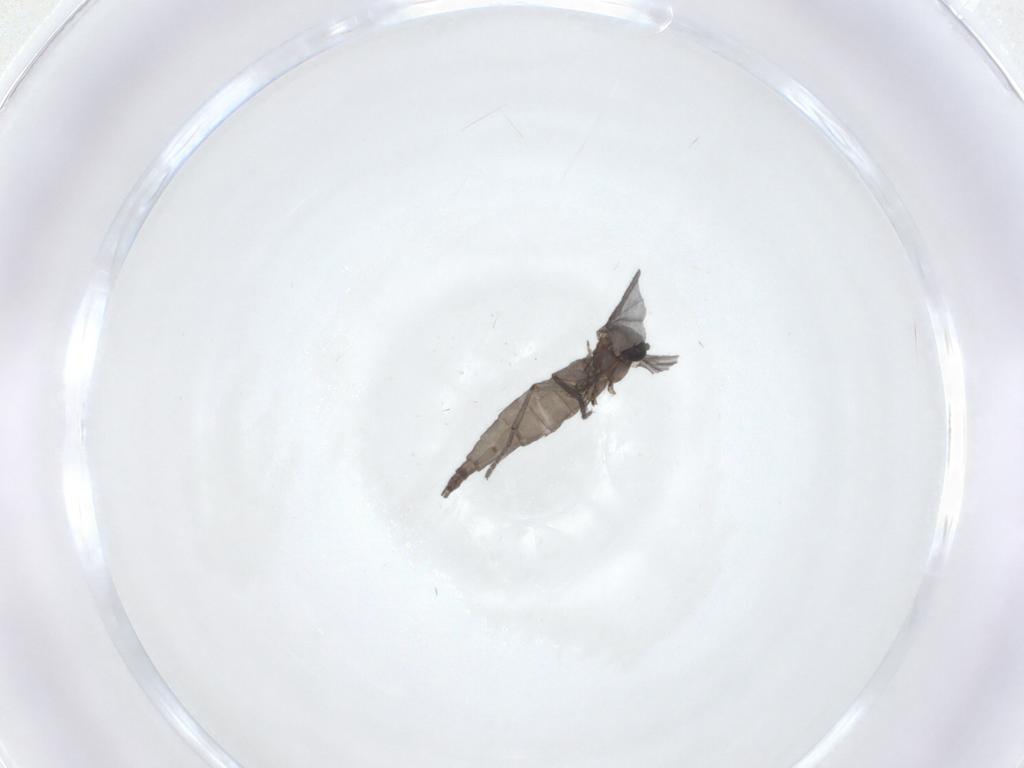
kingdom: Animalia
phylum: Arthropoda
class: Insecta
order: Diptera
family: Sciaridae
